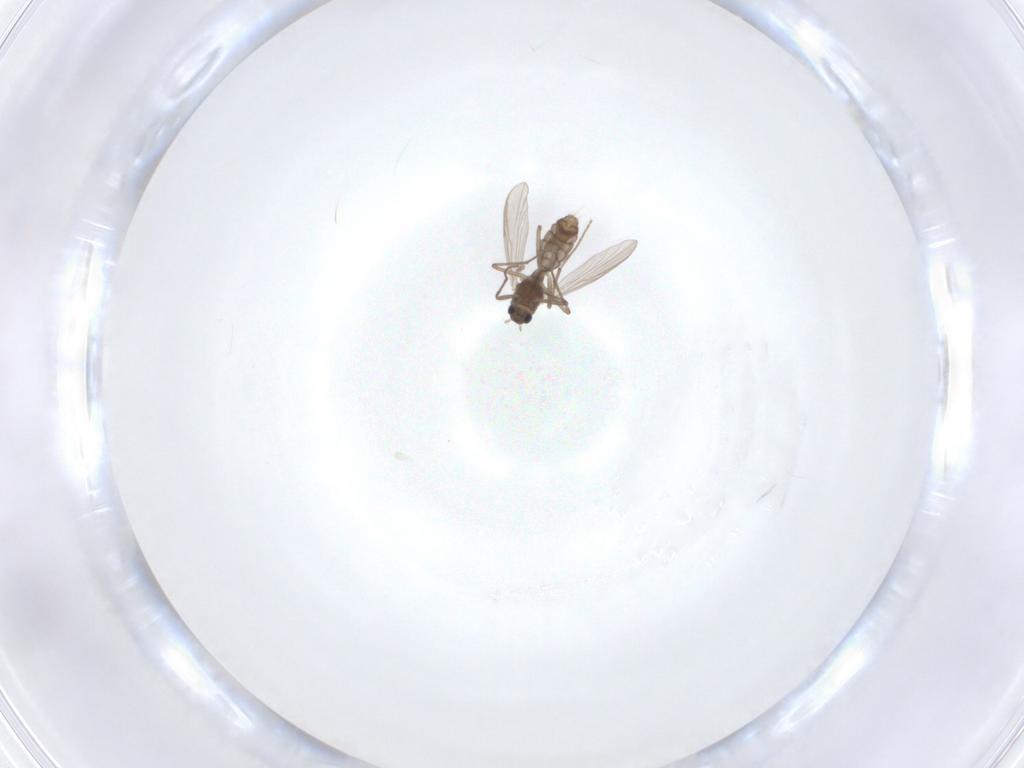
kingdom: Animalia
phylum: Arthropoda
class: Insecta
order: Diptera
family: Chironomidae
